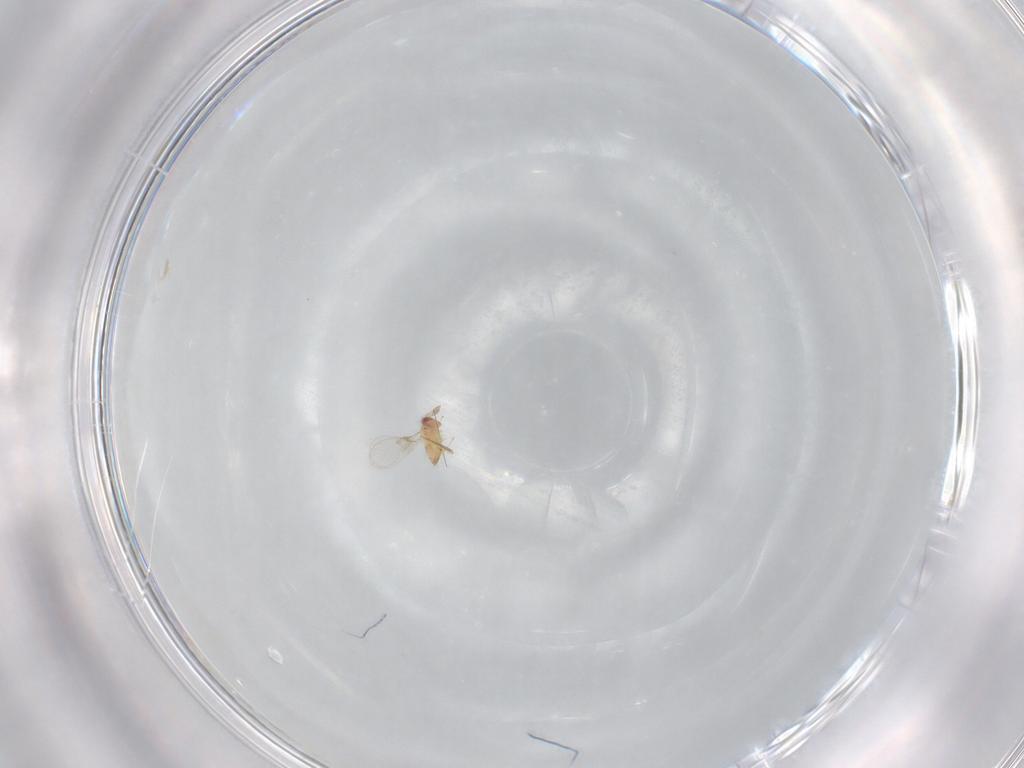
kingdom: Animalia
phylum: Arthropoda
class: Insecta
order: Hymenoptera
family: Trichogrammatidae
